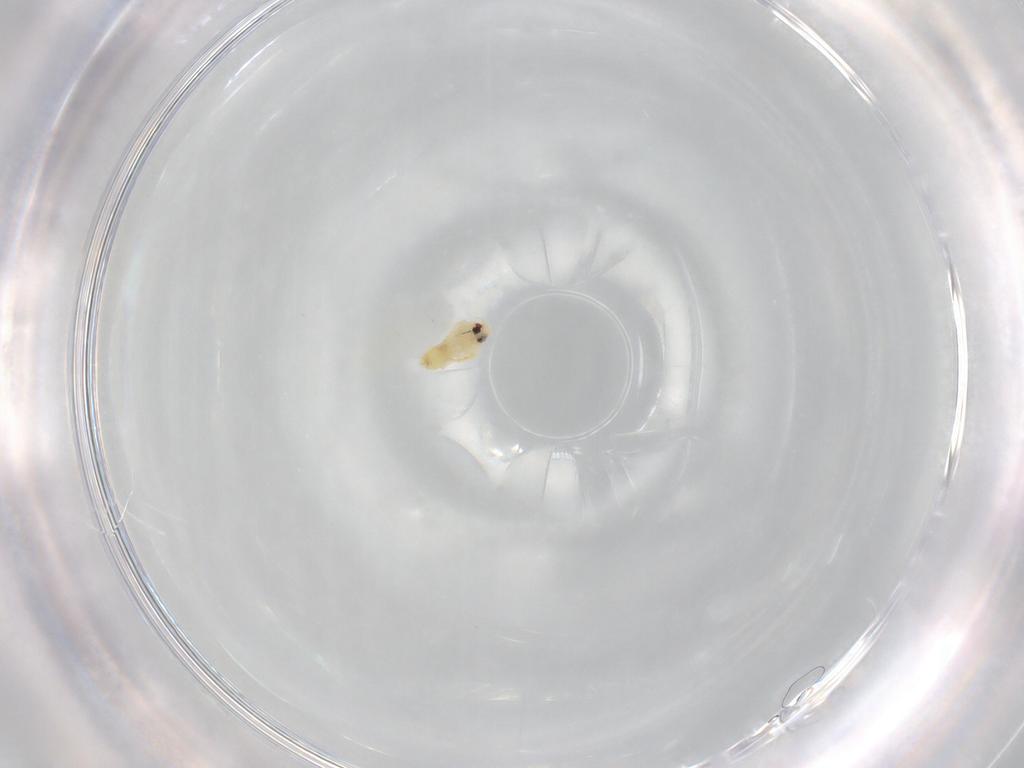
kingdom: Animalia
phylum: Arthropoda
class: Insecta
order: Hemiptera
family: Aleyrodidae
